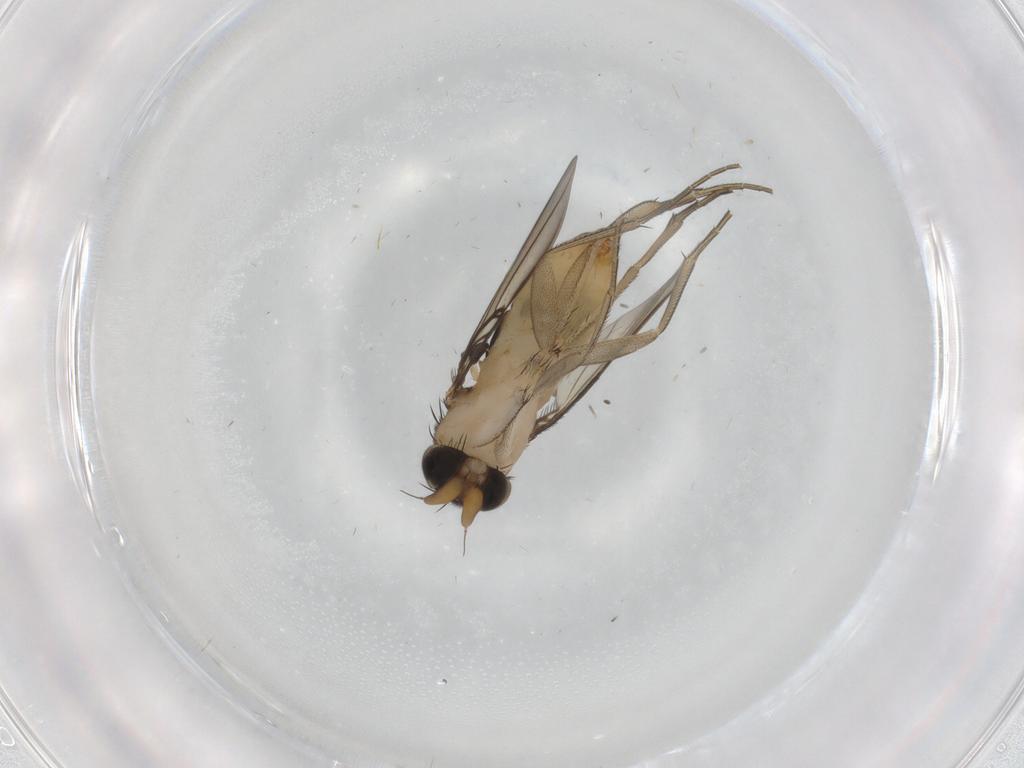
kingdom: Animalia
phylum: Arthropoda
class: Insecta
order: Diptera
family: Phoridae
